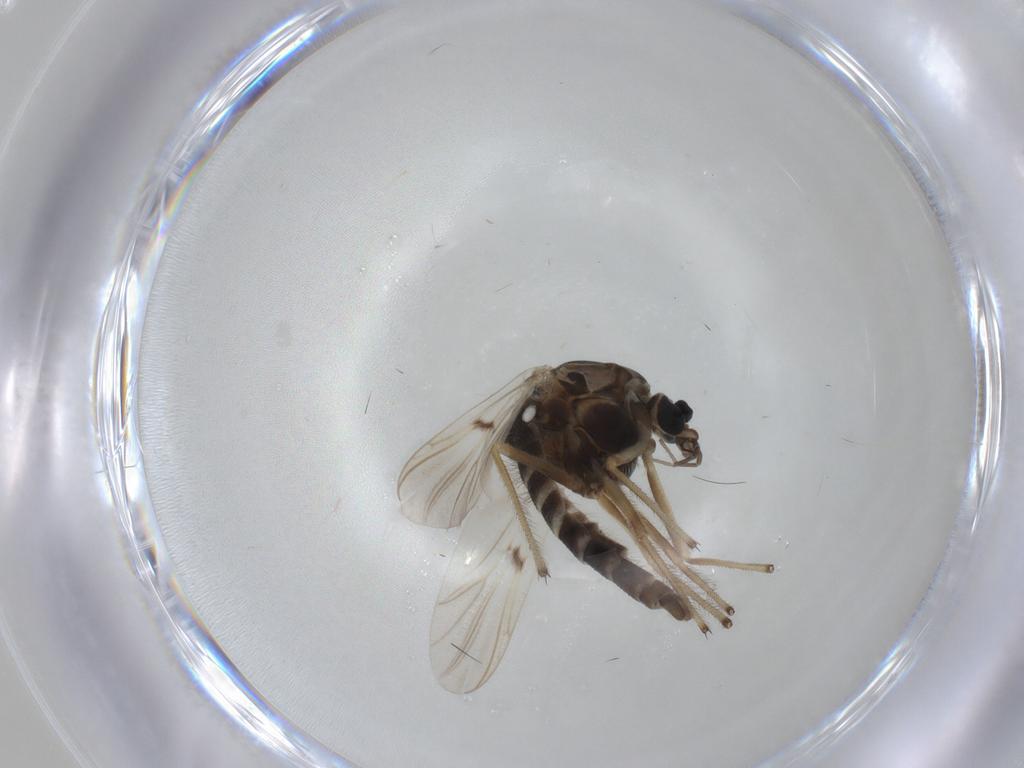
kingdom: Animalia
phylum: Arthropoda
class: Insecta
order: Diptera
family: Chironomidae
